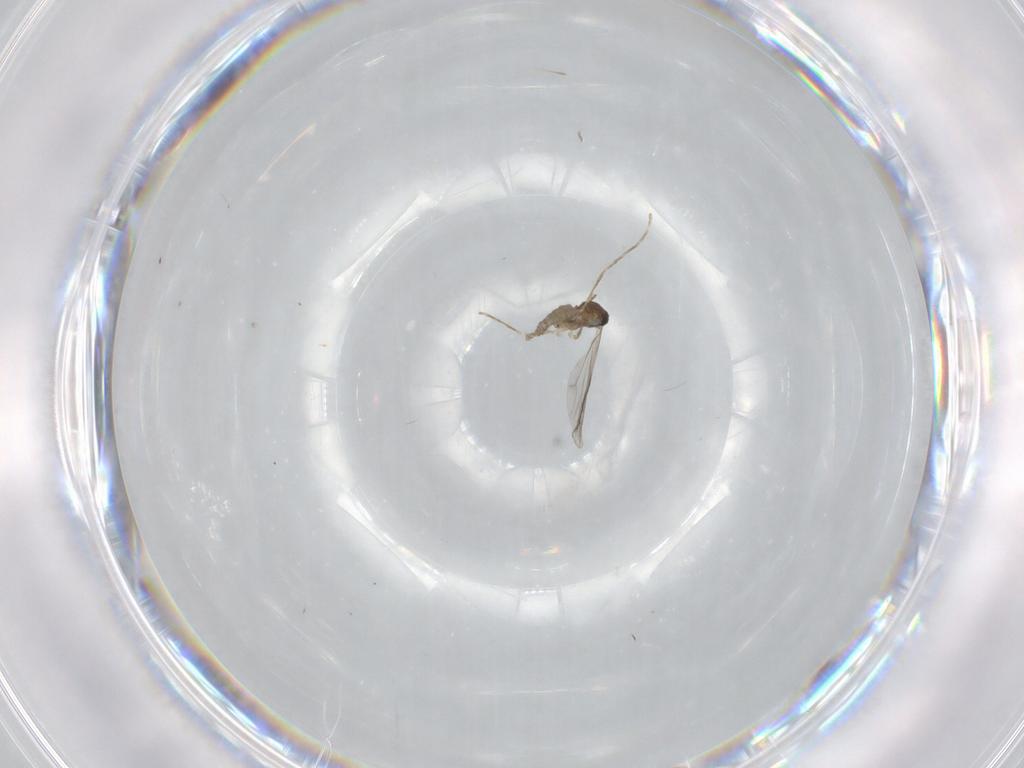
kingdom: Animalia
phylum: Arthropoda
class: Insecta
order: Diptera
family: Cecidomyiidae
